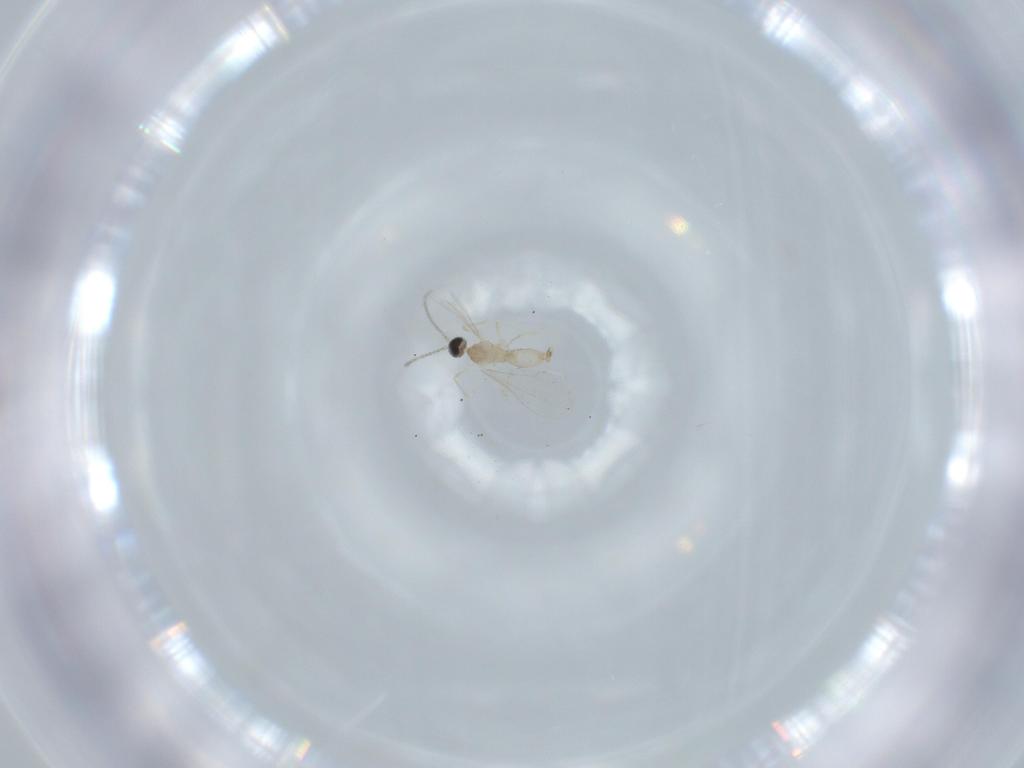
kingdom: Animalia
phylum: Arthropoda
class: Insecta
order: Diptera
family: Cecidomyiidae
